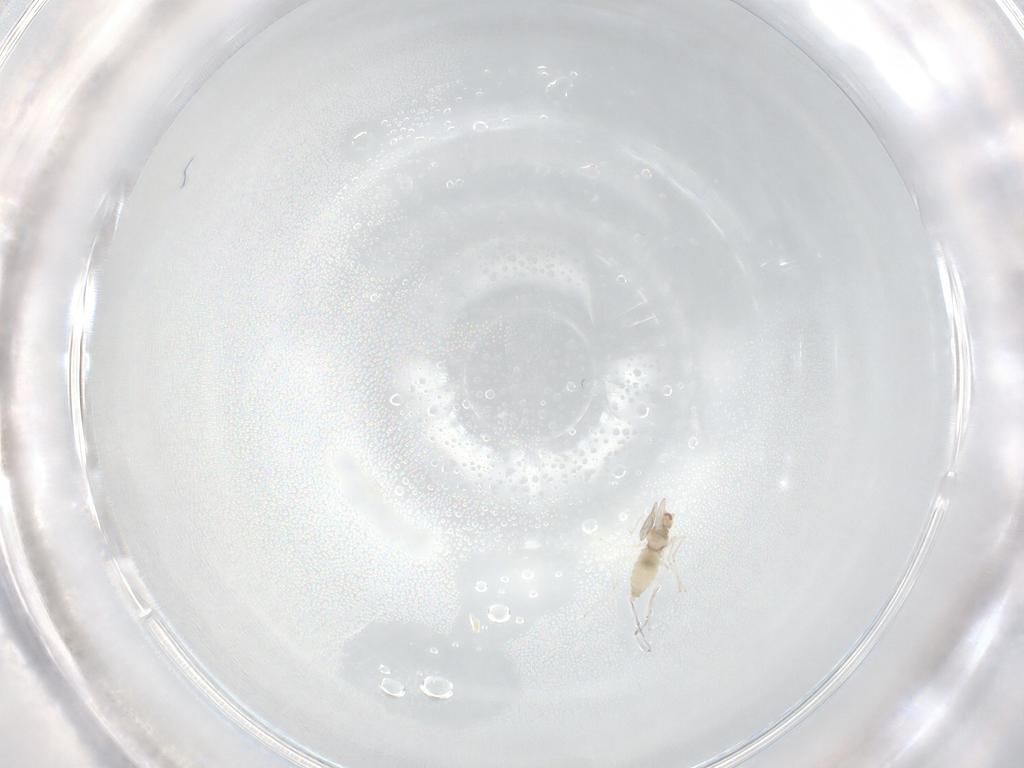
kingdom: Animalia
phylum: Arthropoda
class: Insecta
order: Diptera
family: Cecidomyiidae
